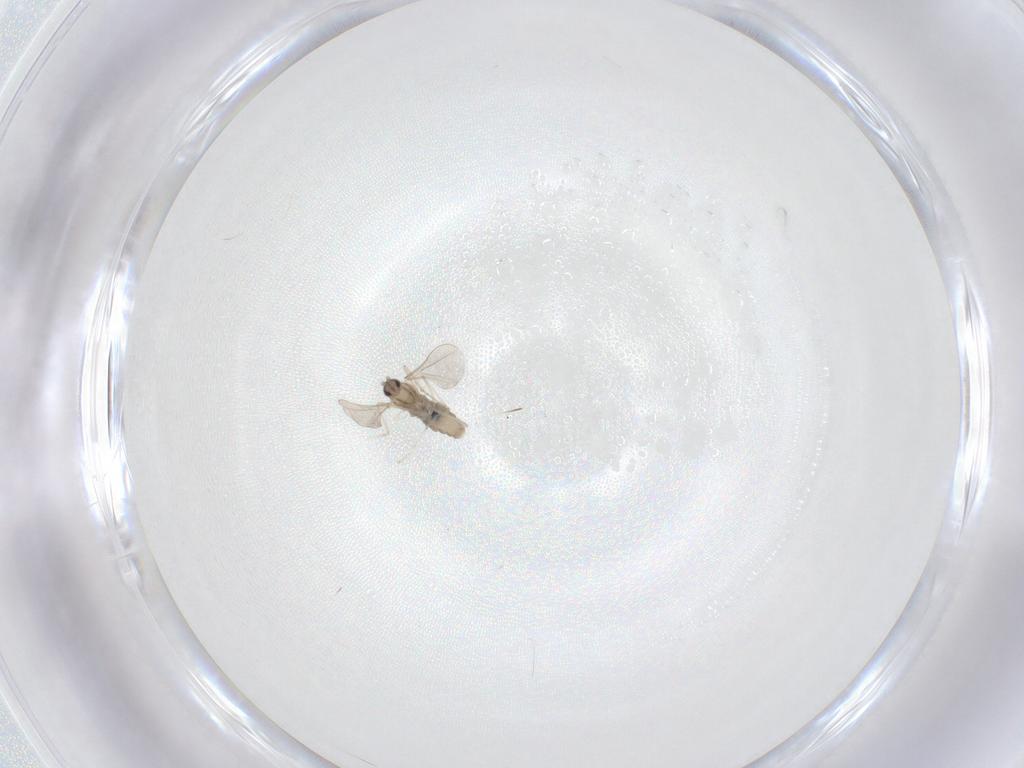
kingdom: Animalia
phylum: Arthropoda
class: Insecta
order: Diptera
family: Cecidomyiidae
